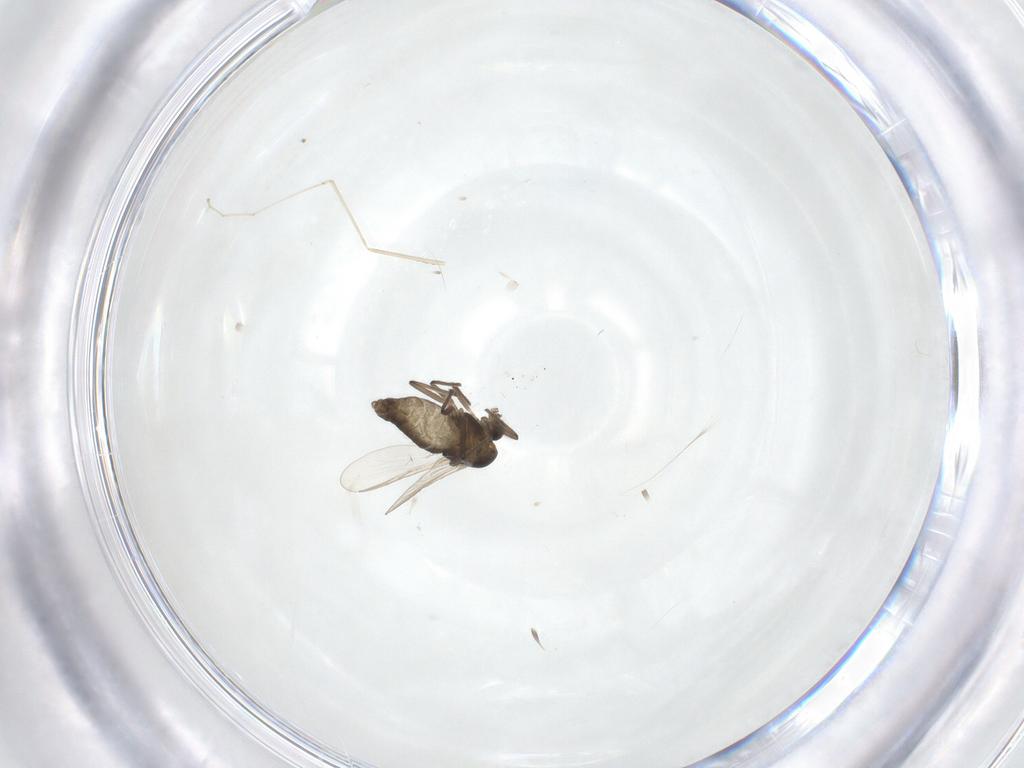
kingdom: Animalia
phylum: Arthropoda
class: Insecta
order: Diptera
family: Chironomidae
